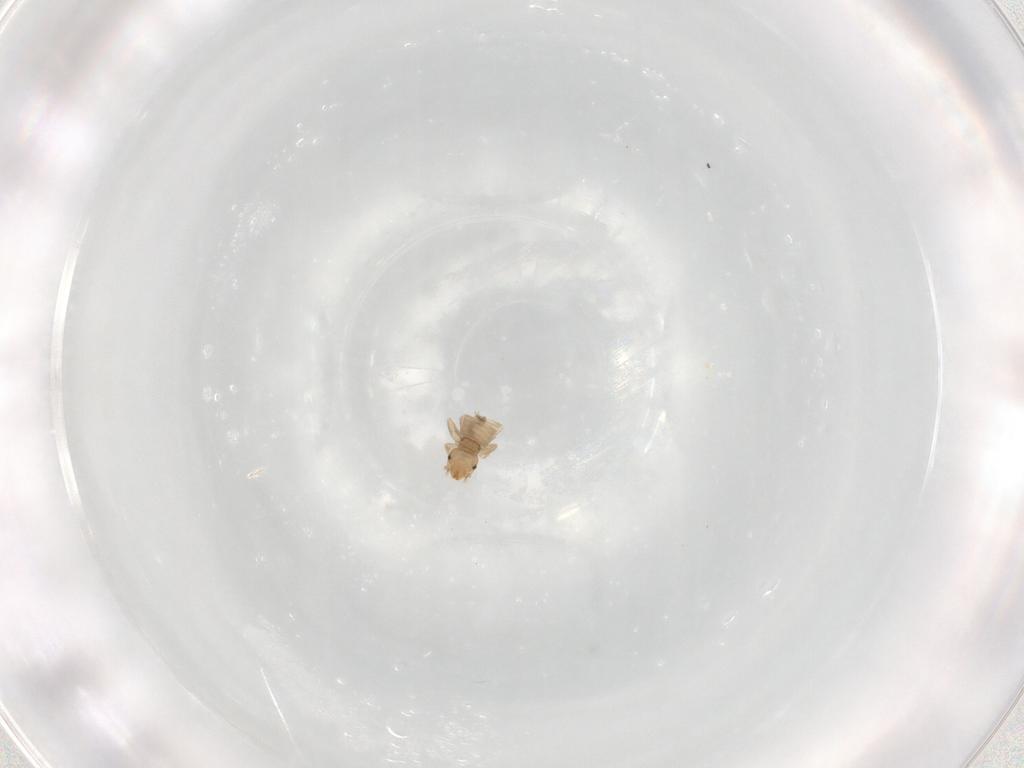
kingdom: Animalia
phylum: Arthropoda
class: Insecta
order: Psocodea
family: Liposcelididae
